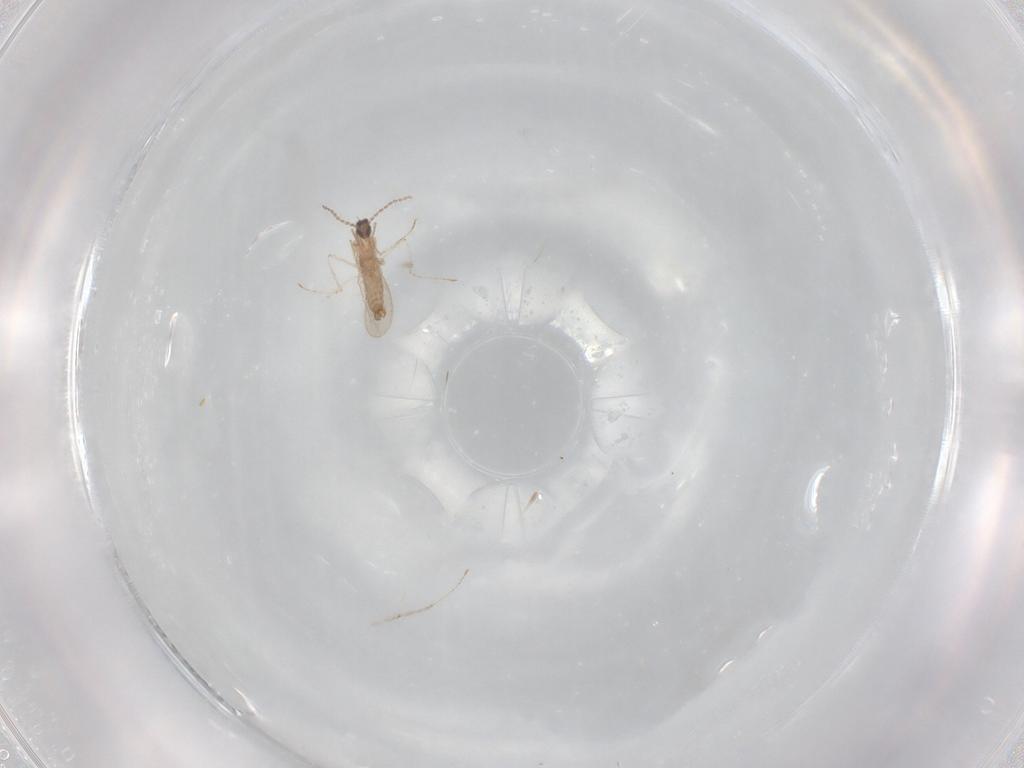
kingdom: Animalia
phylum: Arthropoda
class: Insecta
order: Diptera
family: Cecidomyiidae
